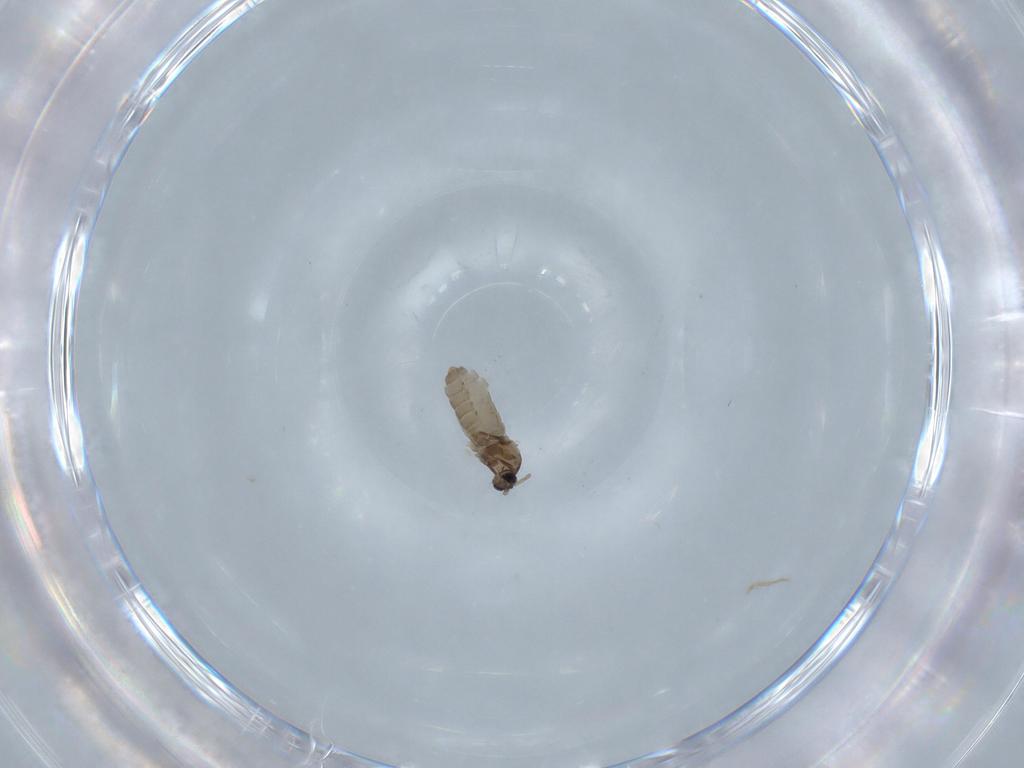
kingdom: Animalia
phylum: Arthropoda
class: Insecta
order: Diptera
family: Cecidomyiidae
